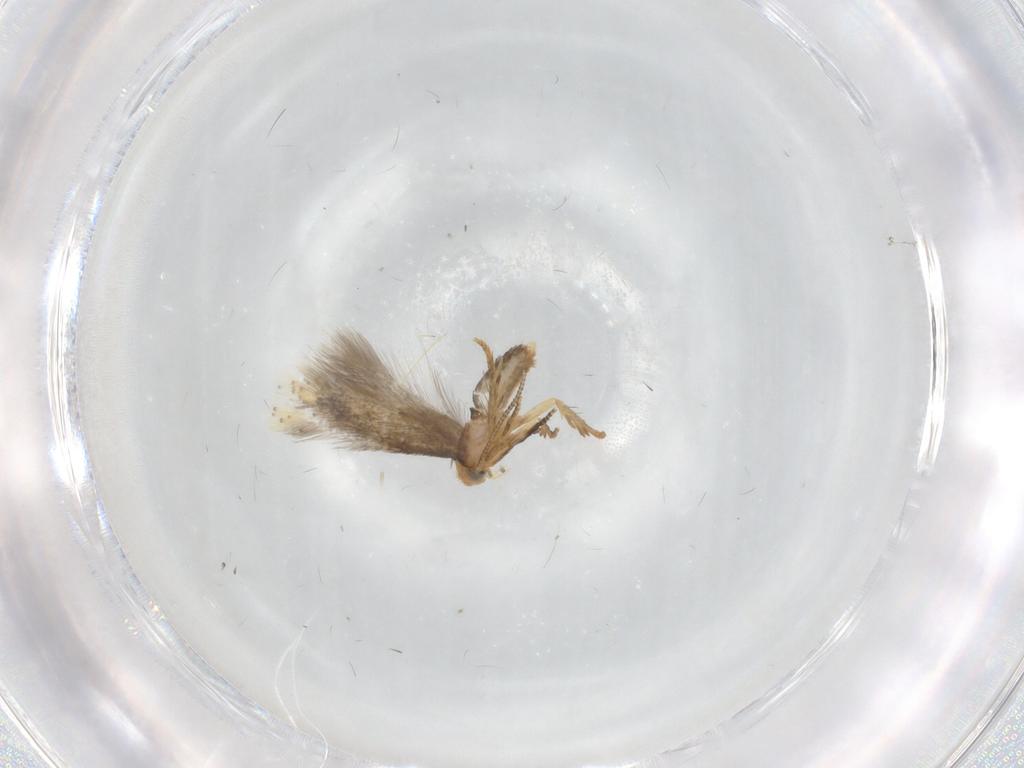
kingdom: Animalia
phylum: Arthropoda
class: Insecta
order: Lepidoptera
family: Nepticulidae
